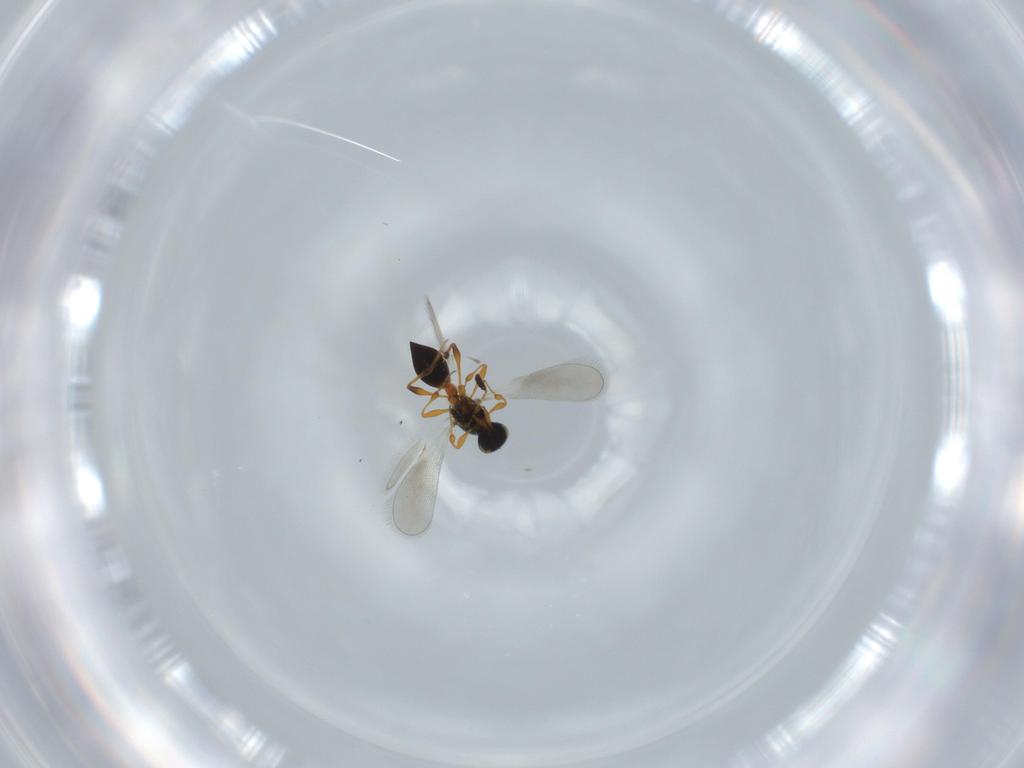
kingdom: Animalia
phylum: Arthropoda
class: Insecta
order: Hymenoptera
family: Platygastridae
